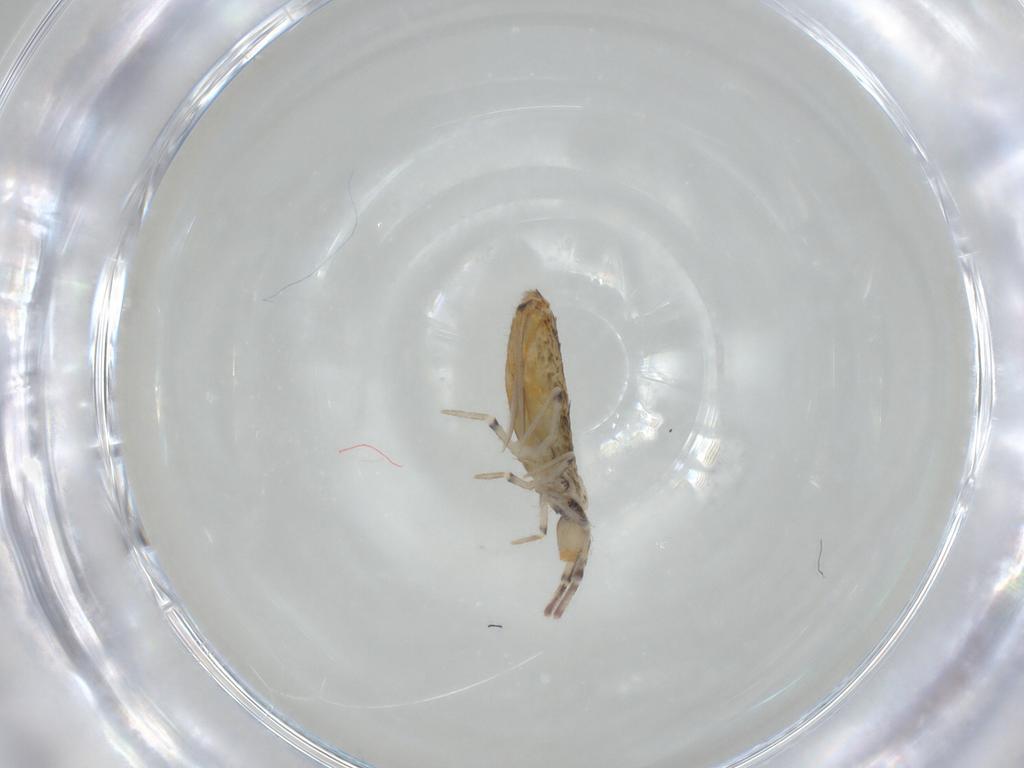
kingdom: Animalia
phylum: Arthropoda
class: Collembola
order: Entomobryomorpha
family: Entomobryidae
